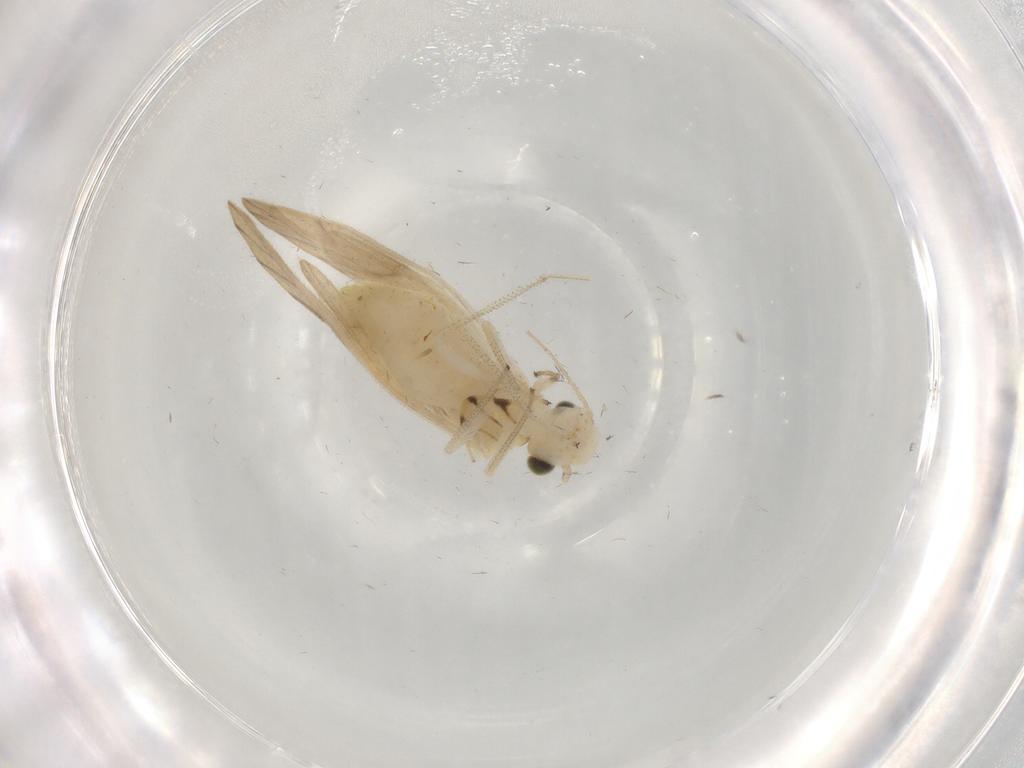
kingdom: Animalia
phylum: Arthropoda
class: Insecta
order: Psocodea
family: Caeciliusidae
